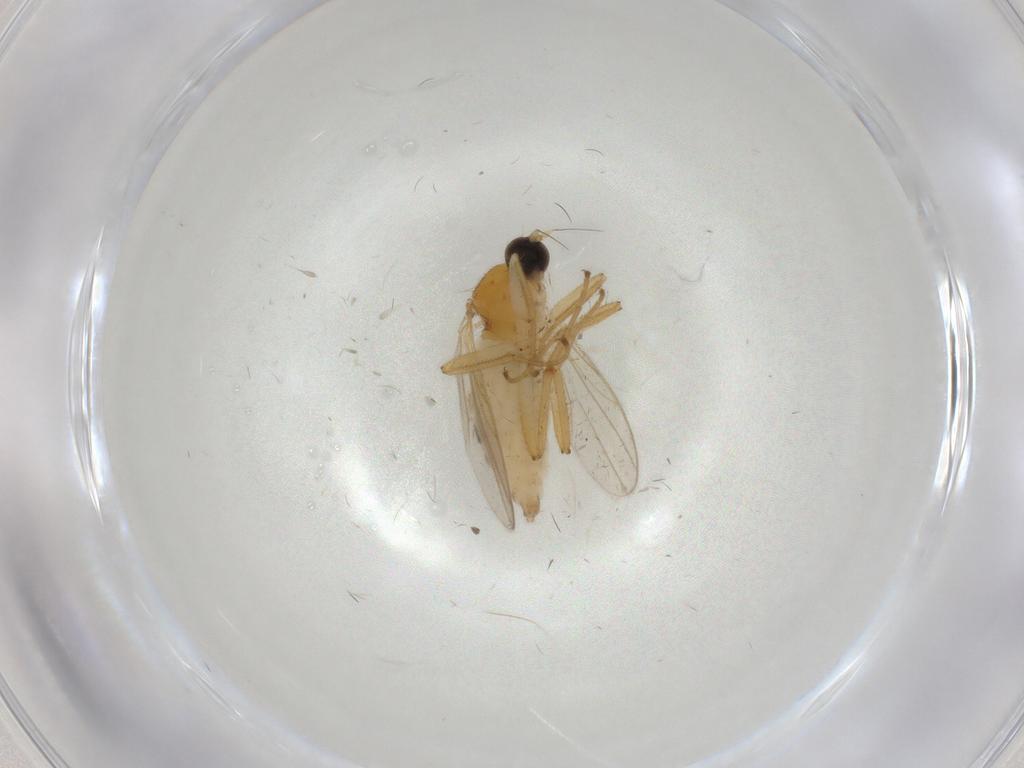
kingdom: Animalia
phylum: Arthropoda
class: Insecta
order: Diptera
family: Hybotidae
